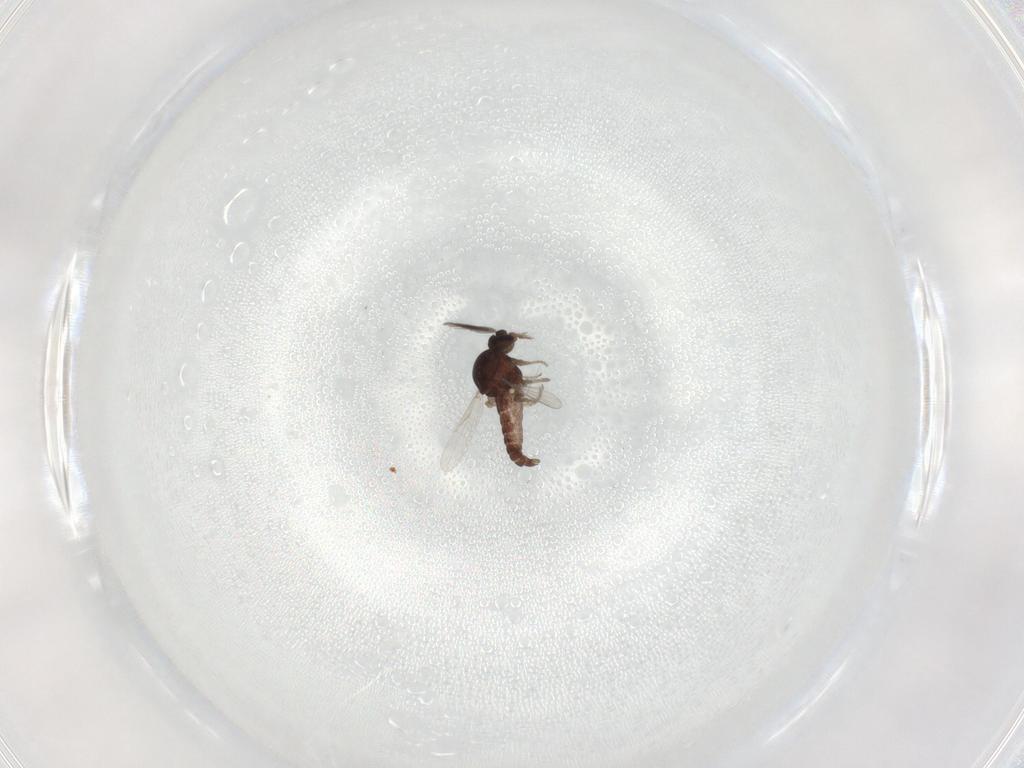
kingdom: Animalia
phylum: Arthropoda
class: Insecta
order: Diptera
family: Ceratopogonidae
